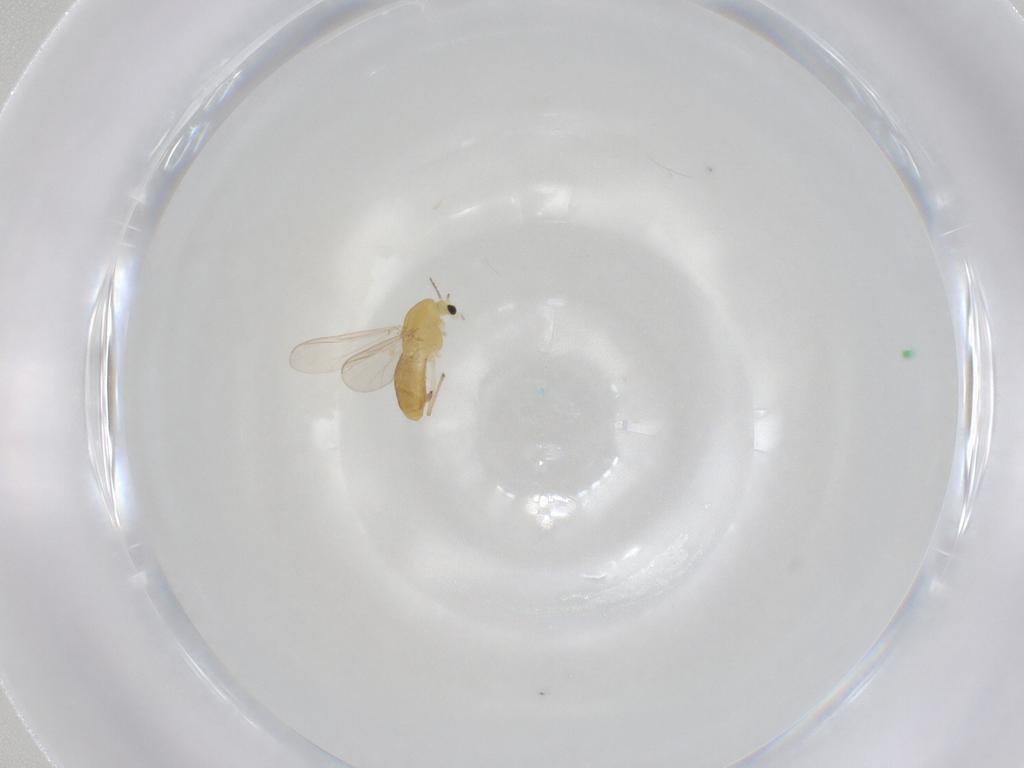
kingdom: Animalia
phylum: Arthropoda
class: Insecta
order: Diptera
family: Chironomidae
